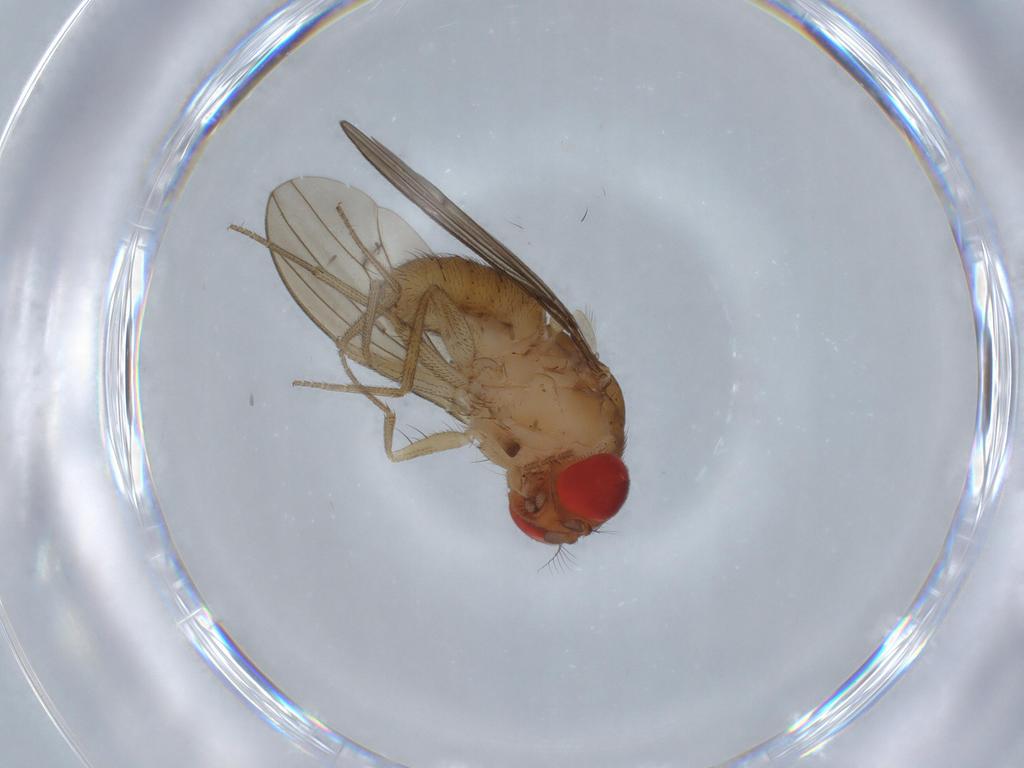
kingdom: Animalia
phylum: Arthropoda
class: Insecta
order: Diptera
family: Drosophilidae
